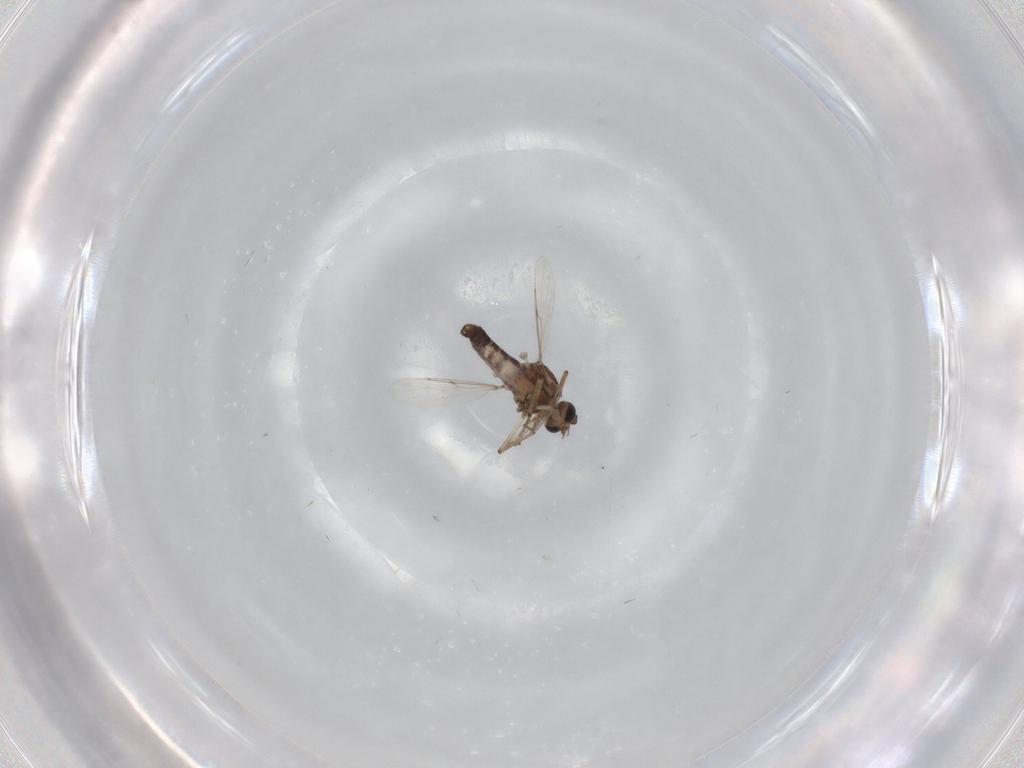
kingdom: Animalia
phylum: Arthropoda
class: Insecta
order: Diptera
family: Ceratopogonidae
